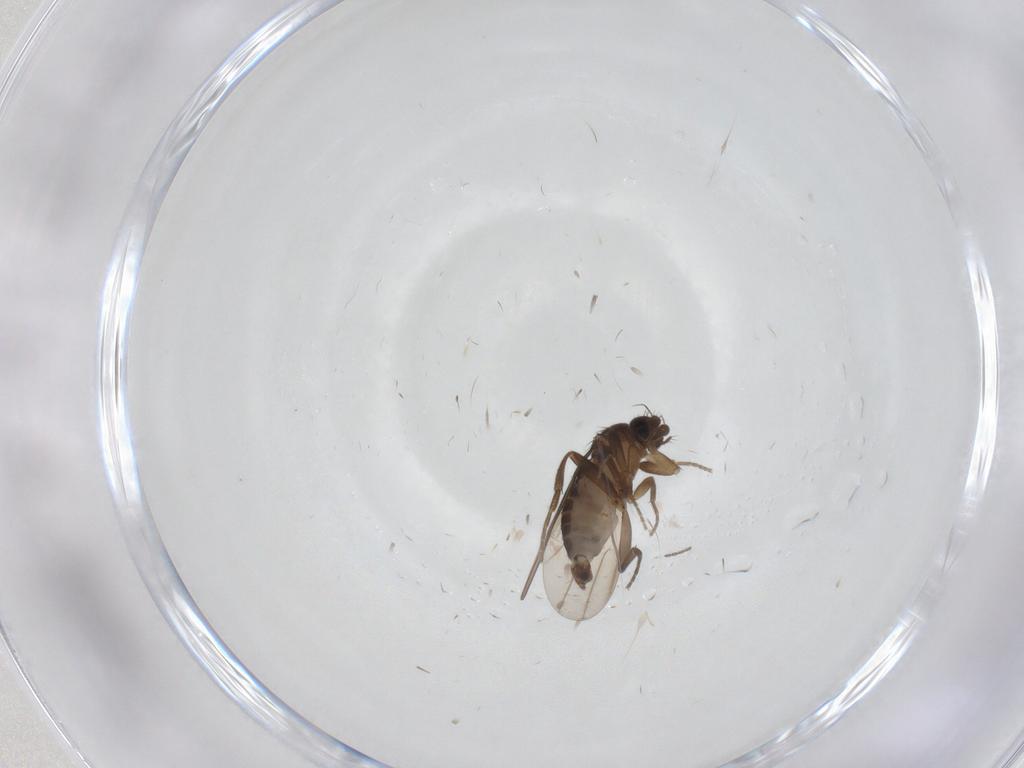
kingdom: Animalia
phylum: Arthropoda
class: Insecta
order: Diptera
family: Phoridae
